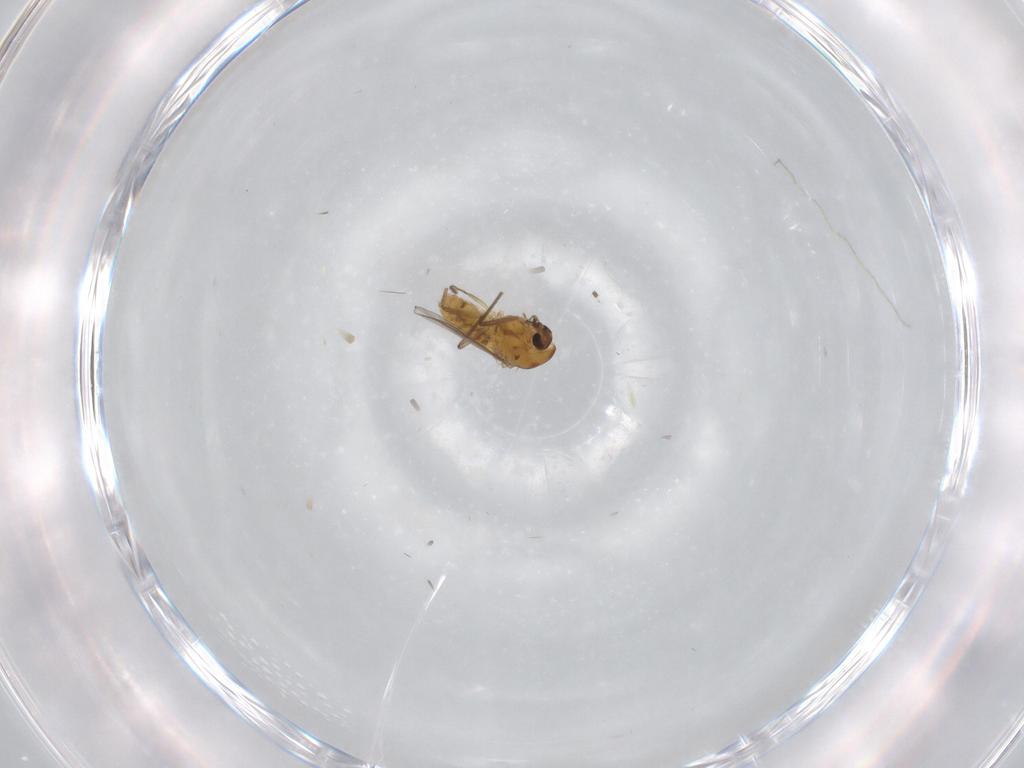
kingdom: Animalia
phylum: Arthropoda
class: Insecta
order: Diptera
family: Chironomidae
